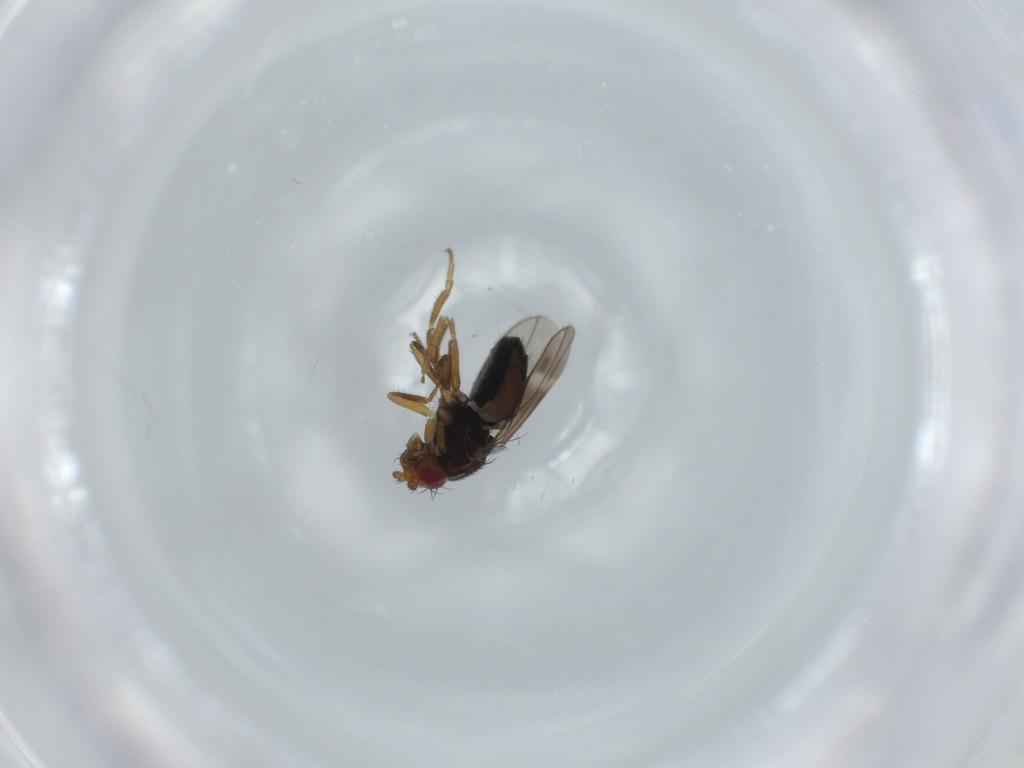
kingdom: Animalia
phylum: Arthropoda
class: Insecta
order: Diptera
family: Sphaeroceridae
